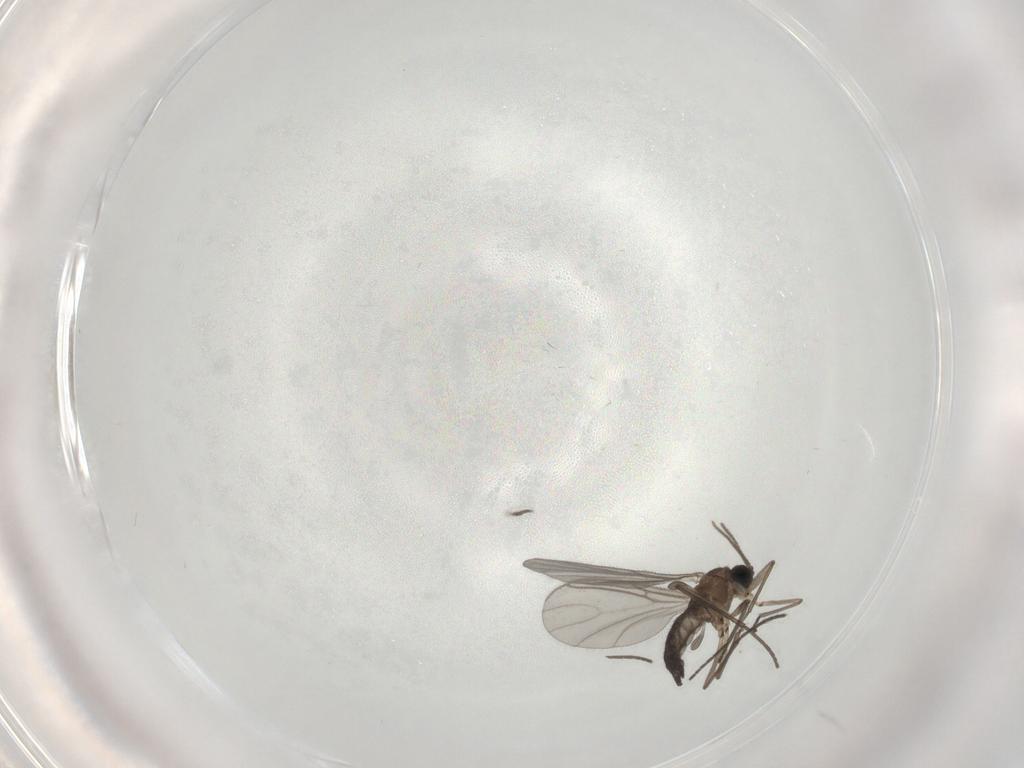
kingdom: Animalia
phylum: Arthropoda
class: Insecta
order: Diptera
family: Sciaridae
